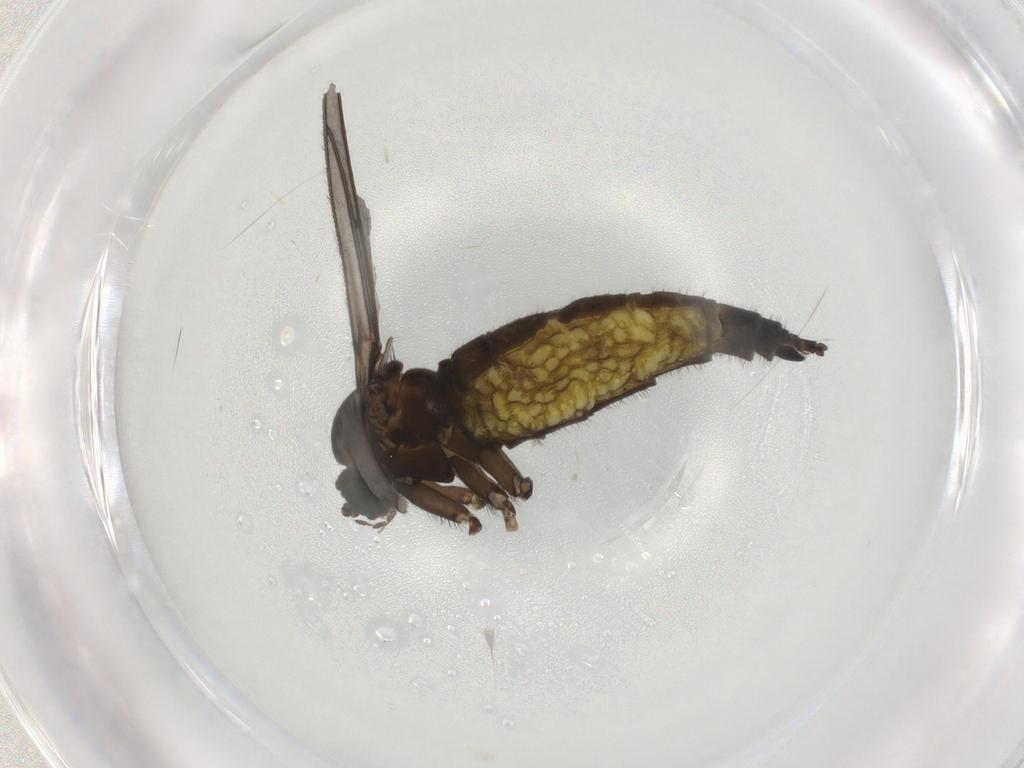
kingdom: Animalia
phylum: Arthropoda
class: Insecta
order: Diptera
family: Sciaridae
